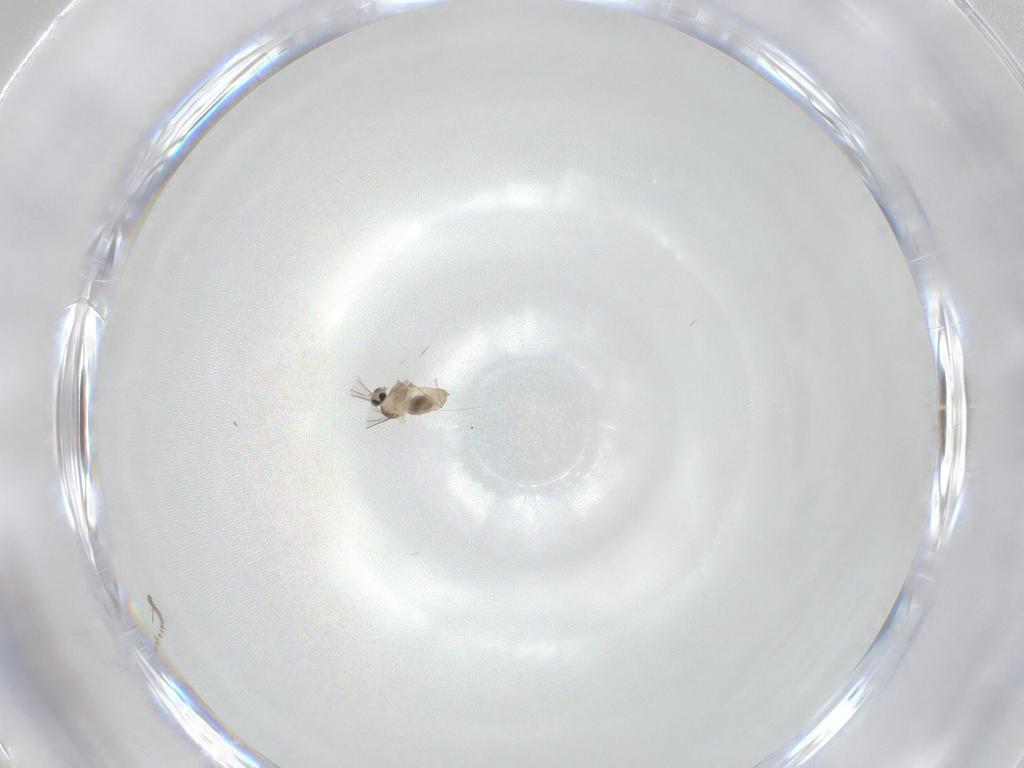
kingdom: Animalia
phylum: Arthropoda
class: Insecta
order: Diptera
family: Cecidomyiidae
